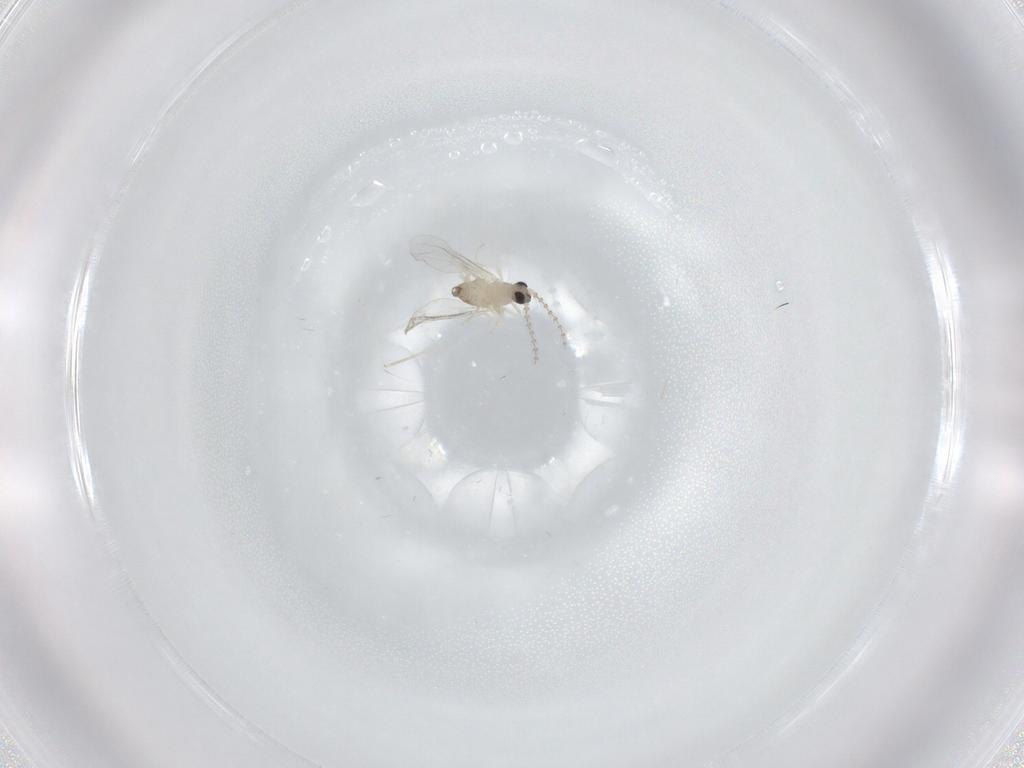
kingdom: Animalia
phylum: Arthropoda
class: Insecta
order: Diptera
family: Cecidomyiidae
